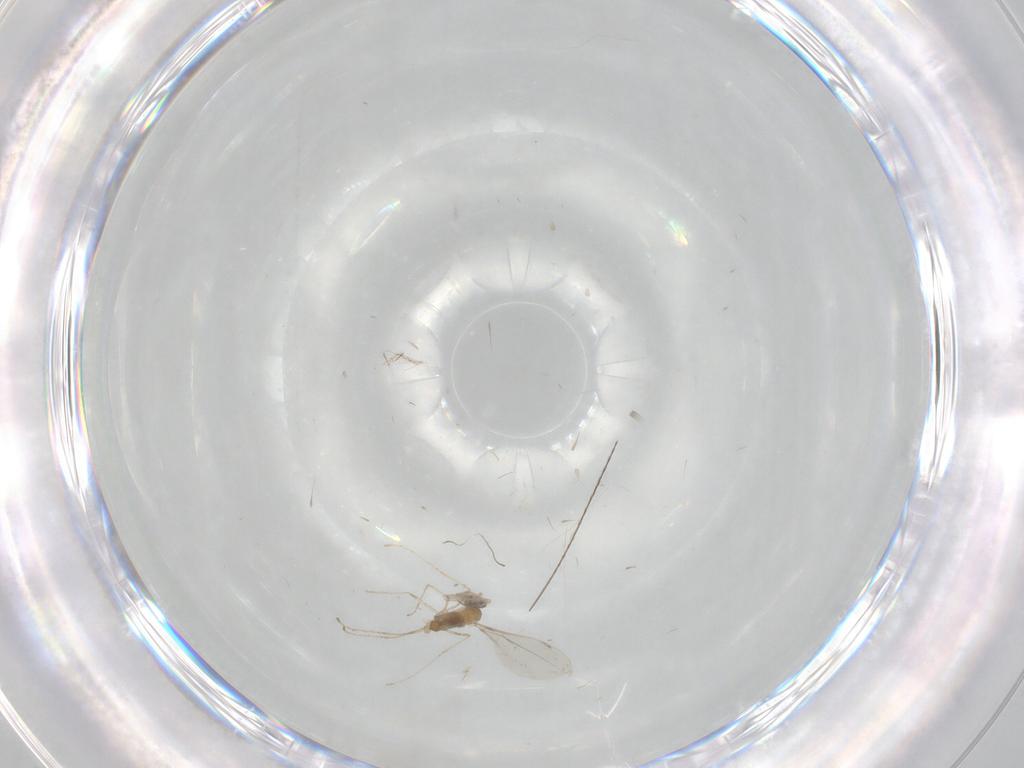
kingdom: Animalia
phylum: Arthropoda
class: Insecta
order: Diptera
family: Cecidomyiidae
